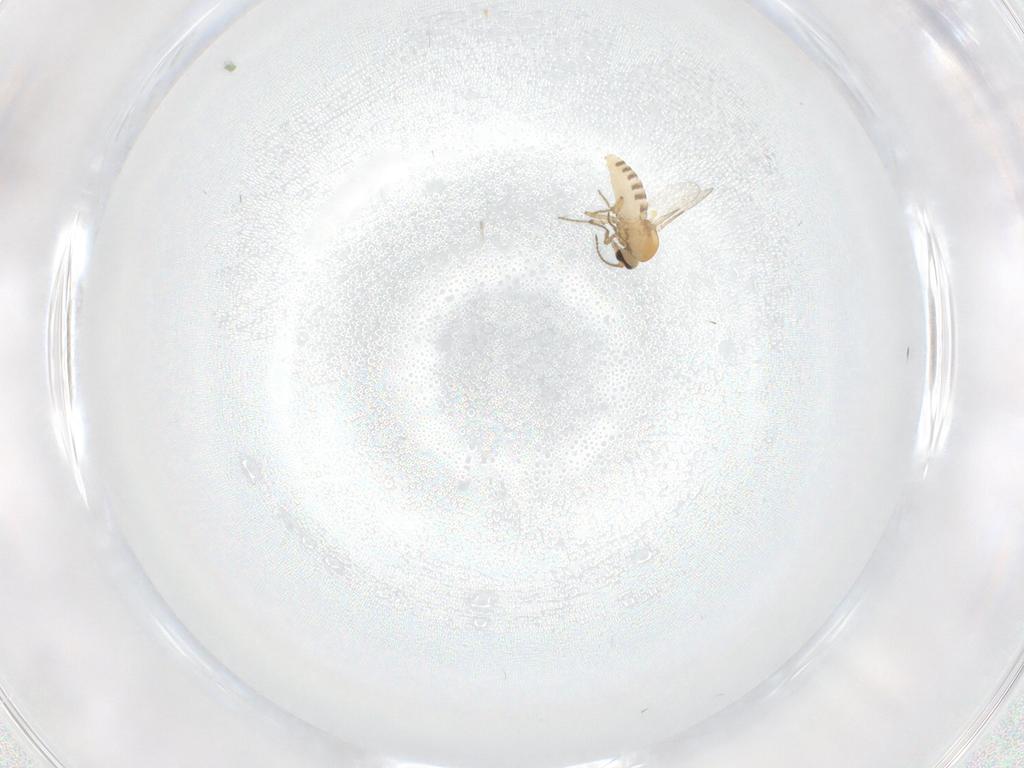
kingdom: Animalia
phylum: Arthropoda
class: Insecta
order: Diptera
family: Ceratopogonidae
